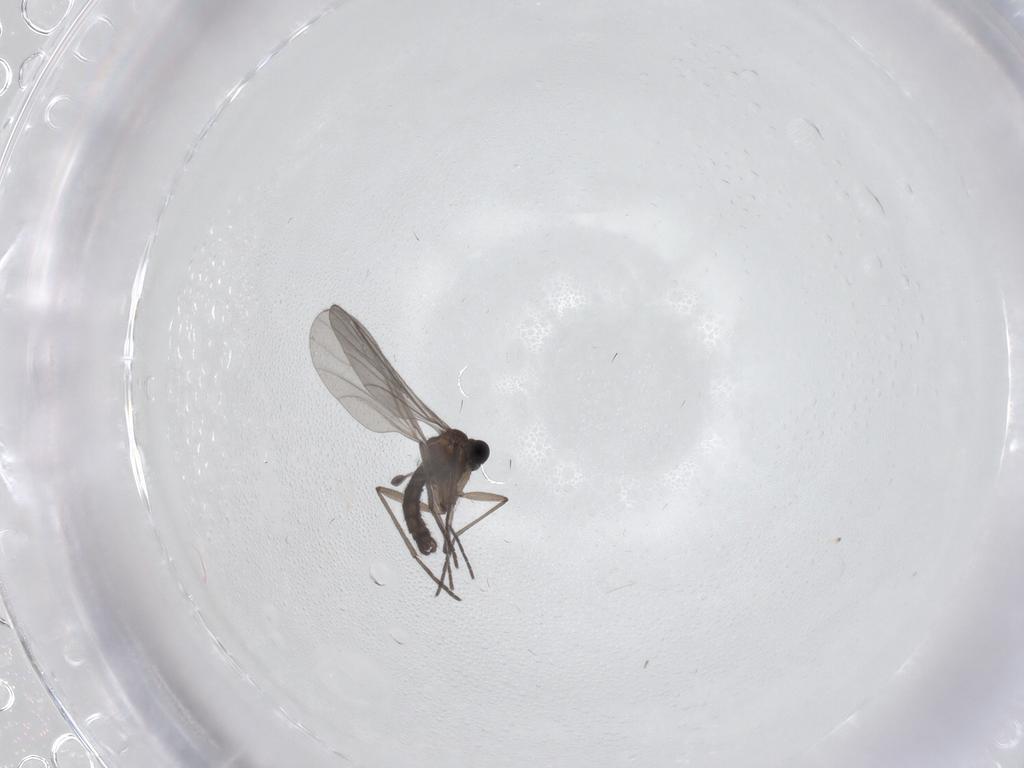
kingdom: Animalia
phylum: Arthropoda
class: Insecta
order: Diptera
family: Sciaridae
